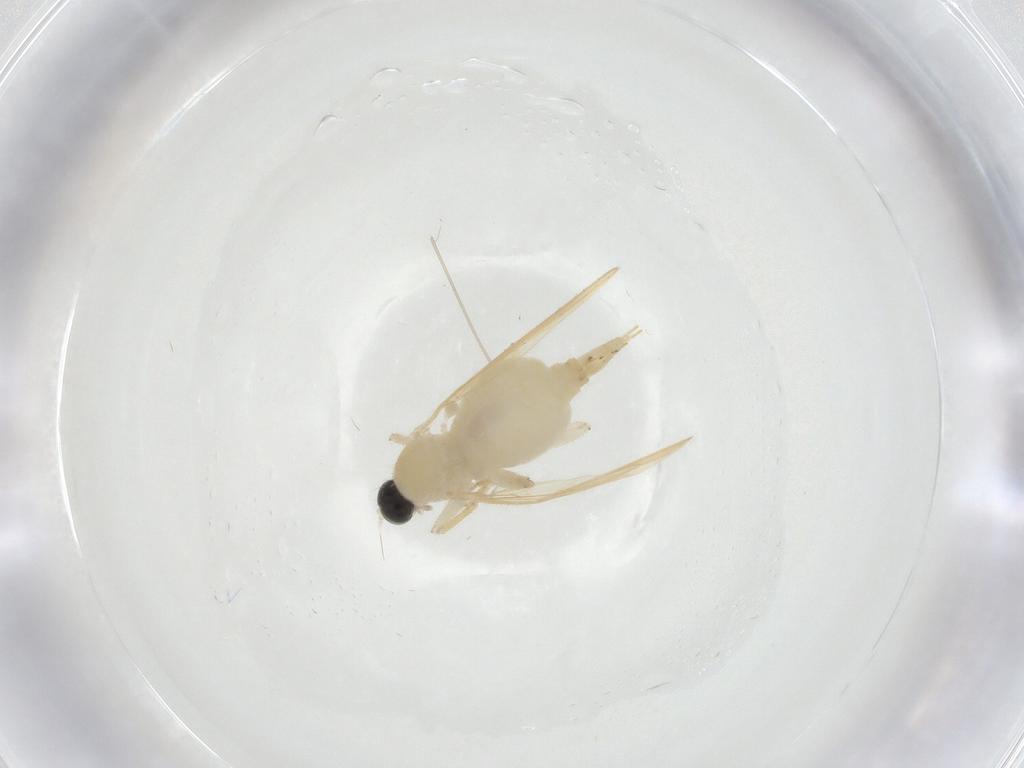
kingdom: Animalia
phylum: Arthropoda
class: Insecta
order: Diptera
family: Hybotidae
